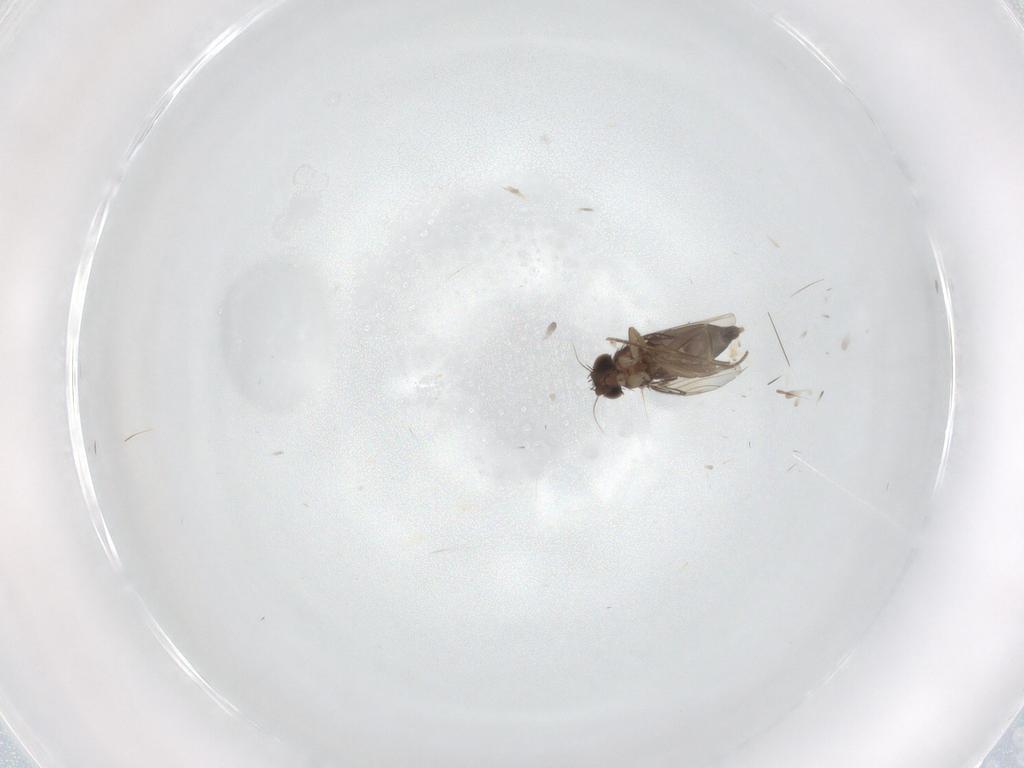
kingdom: Animalia
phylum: Arthropoda
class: Insecta
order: Diptera
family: Phoridae
